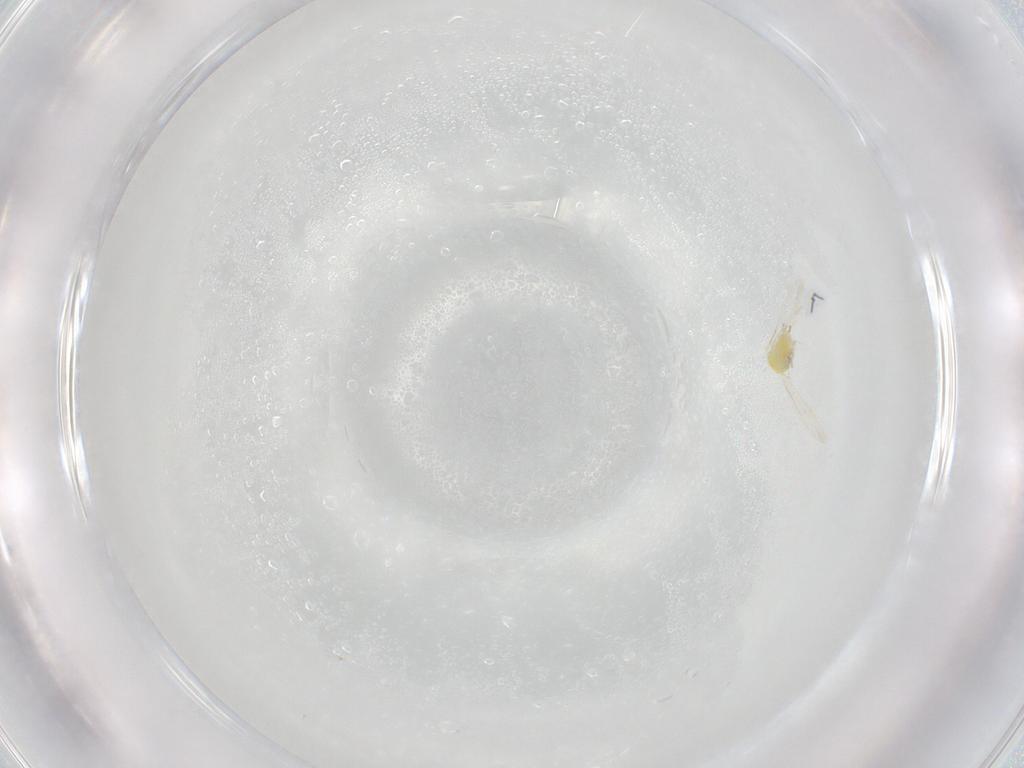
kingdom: Animalia
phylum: Arthropoda
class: Insecta
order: Hemiptera
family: Aleyrodidae
